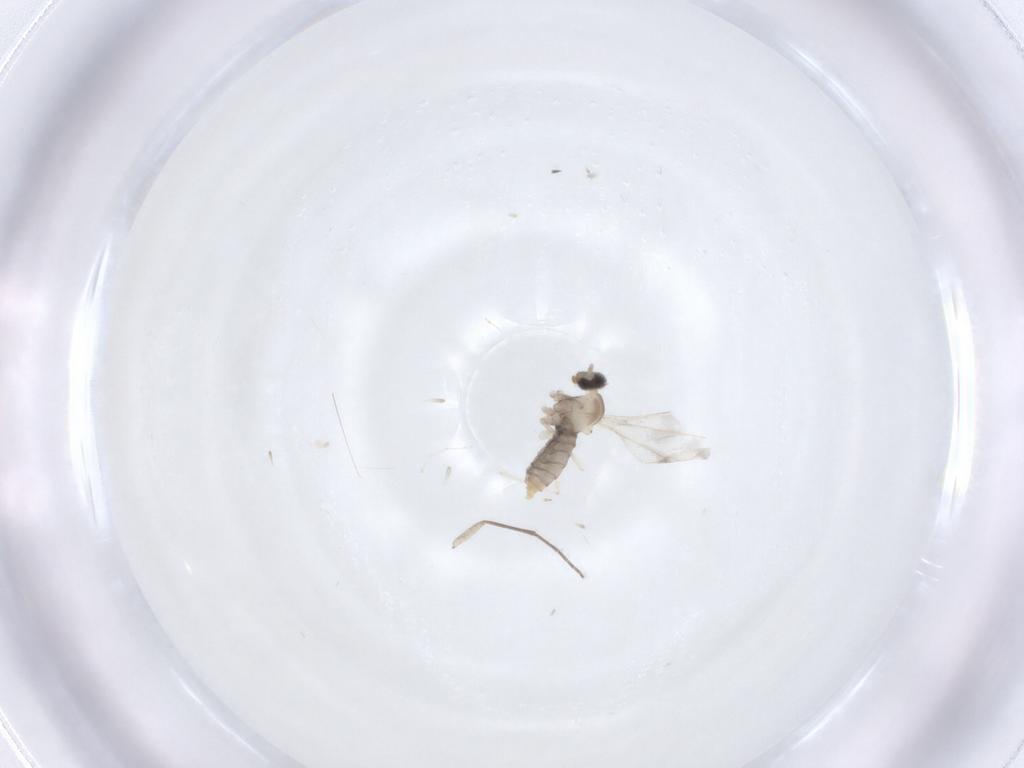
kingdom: Animalia
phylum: Arthropoda
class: Insecta
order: Diptera
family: Cecidomyiidae
